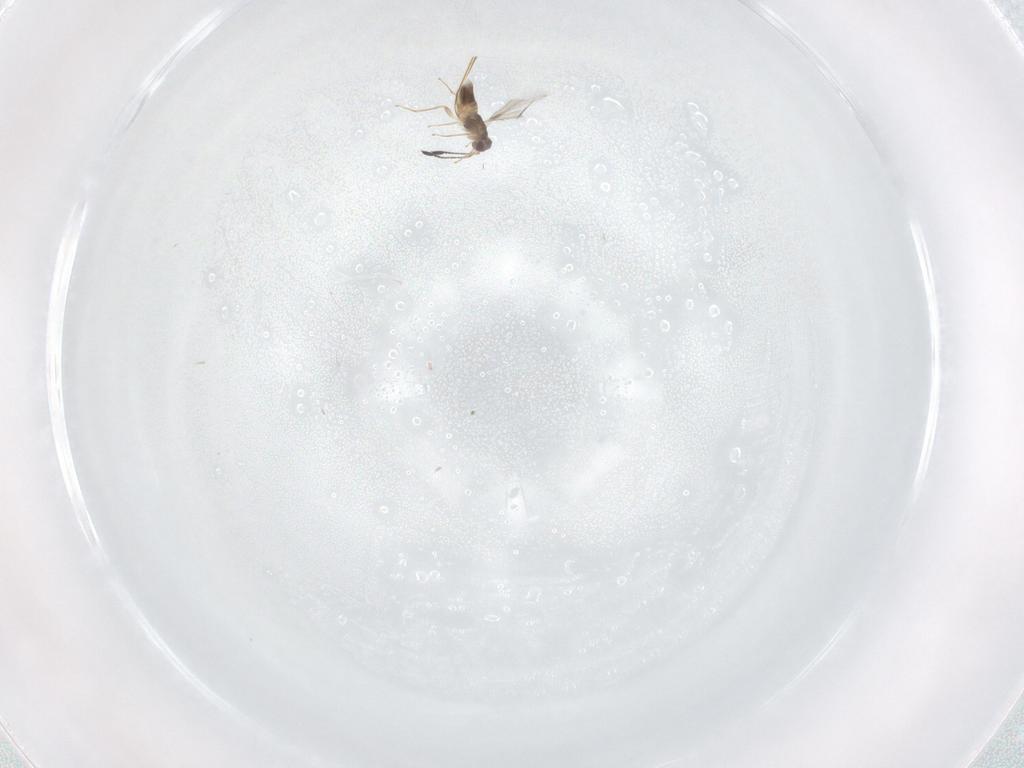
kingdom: Animalia
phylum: Arthropoda
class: Insecta
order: Hymenoptera
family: Mymaridae
